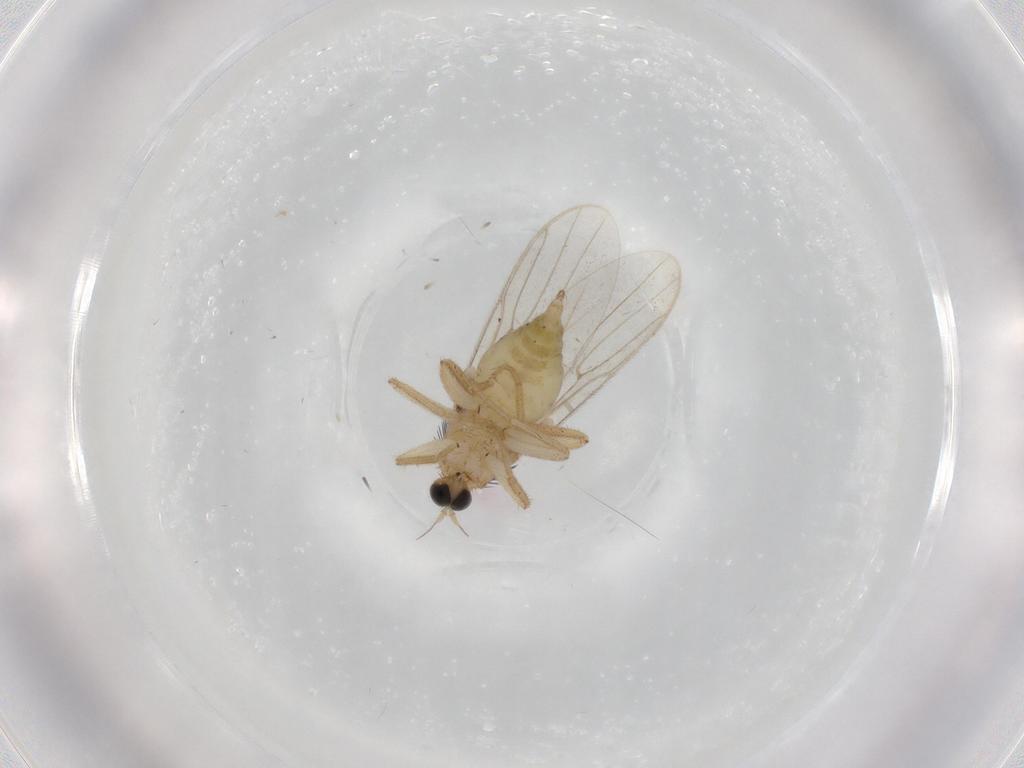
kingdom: Animalia
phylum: Arthropoda
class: Insecta
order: Diptera
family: Hybotidae
